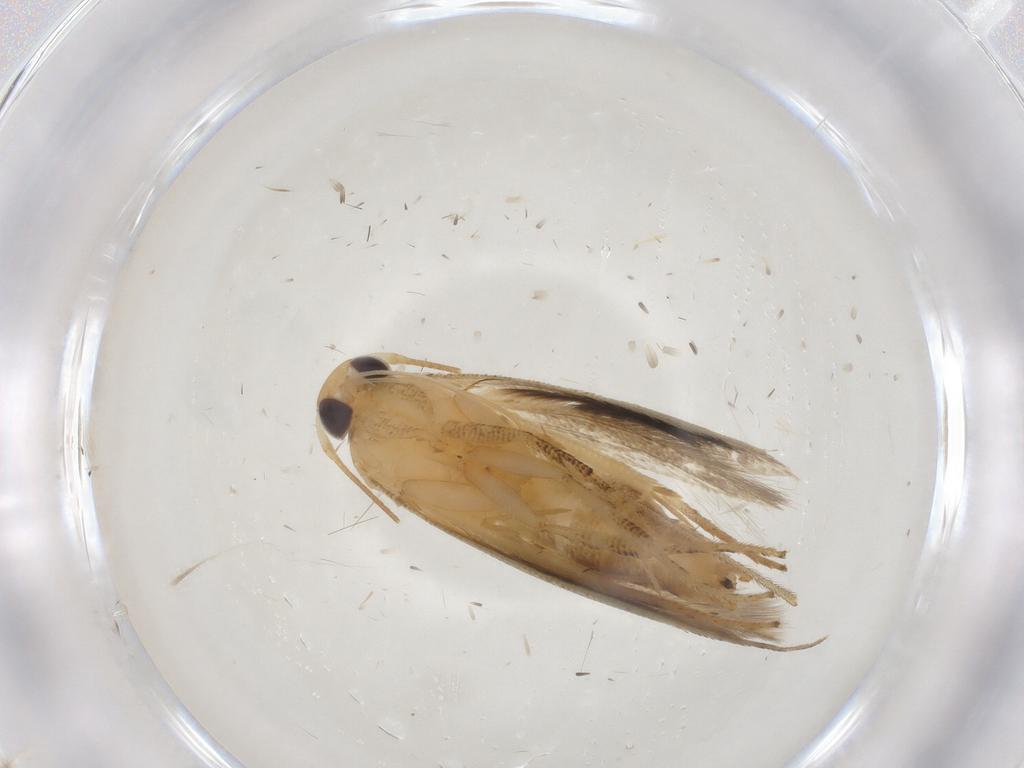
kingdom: Animalia
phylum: Arthropoda
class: Insecta
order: Lepidoptera
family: Momphidae
